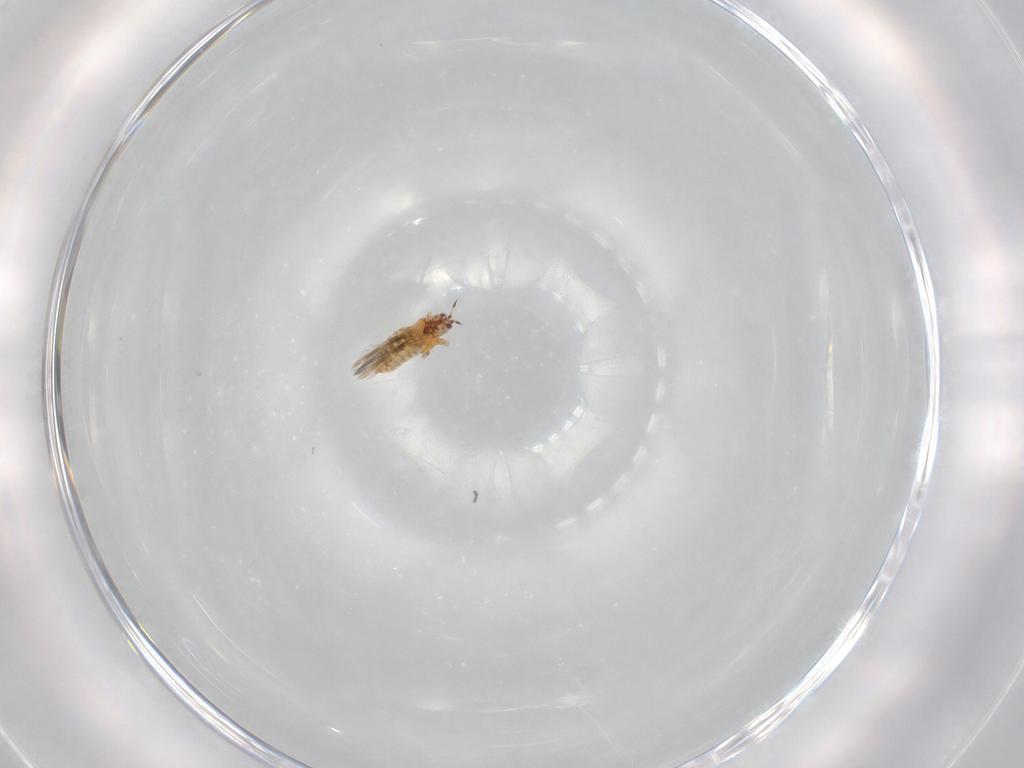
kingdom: Animalia
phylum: Arthropoda
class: Insecta
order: Thysanoptera
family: Thripidae
